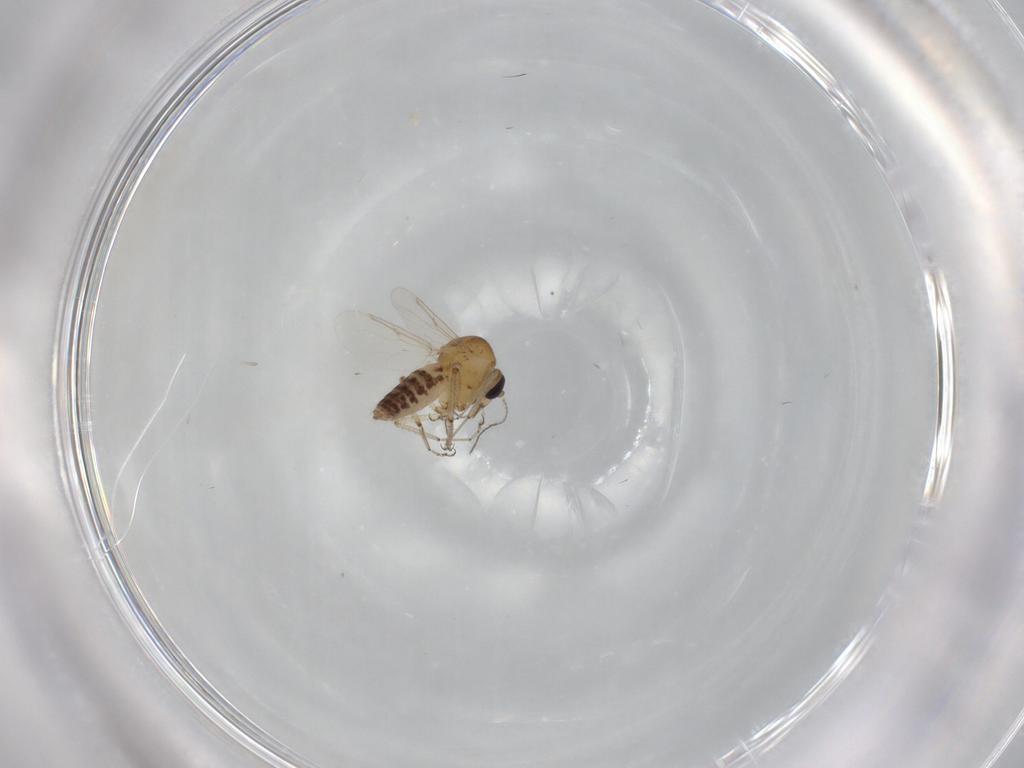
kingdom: Animalia
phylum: Arthropoda
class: Insecta
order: Diptera
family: Ceratopogonidae
